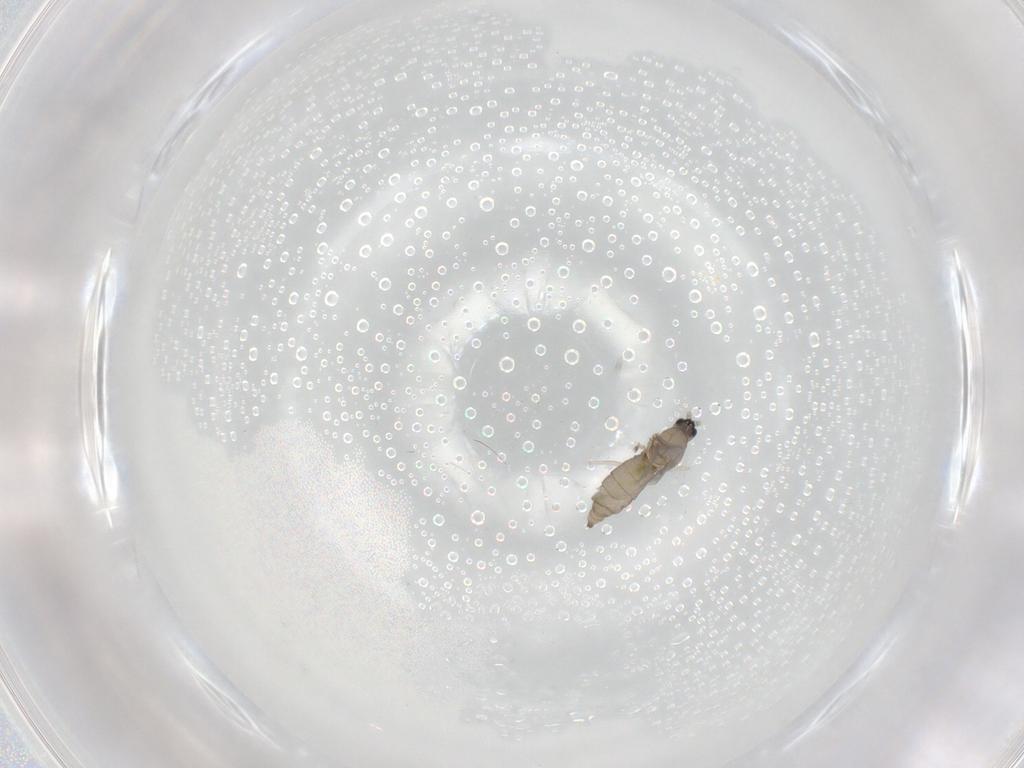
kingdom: Animalia
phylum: Arthropoda
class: Insecta
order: Diptera
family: Cecidomyiidae
